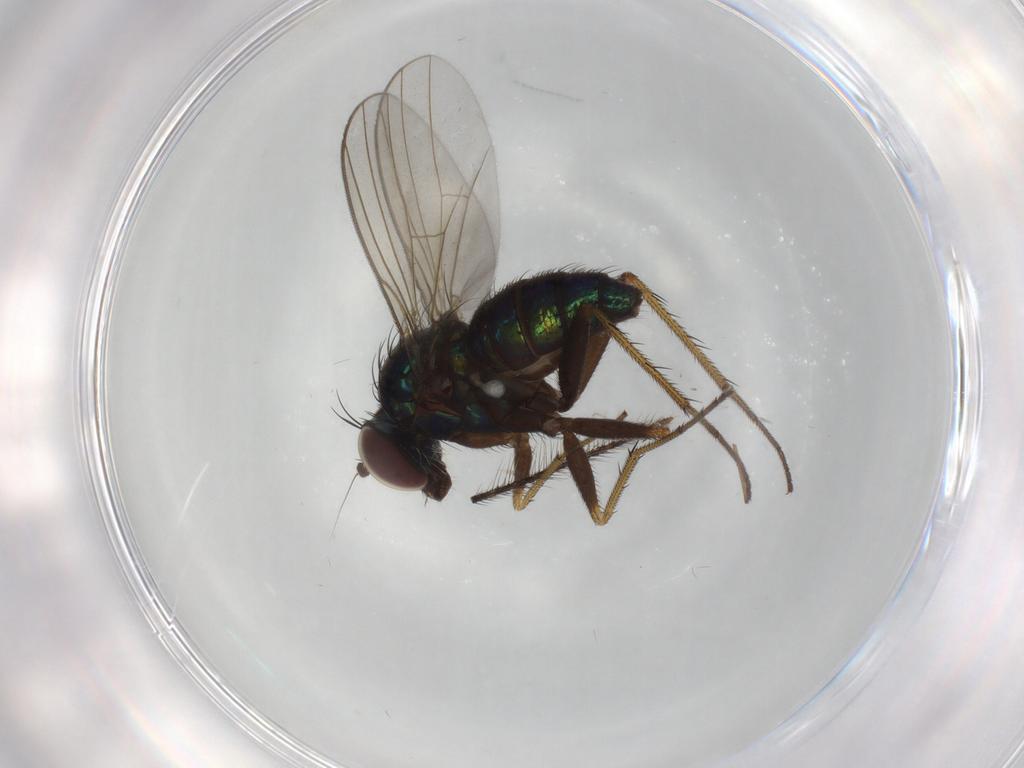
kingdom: Animalia
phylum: Arthropoda
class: Insecta
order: Diptera
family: Dolichopodidae
